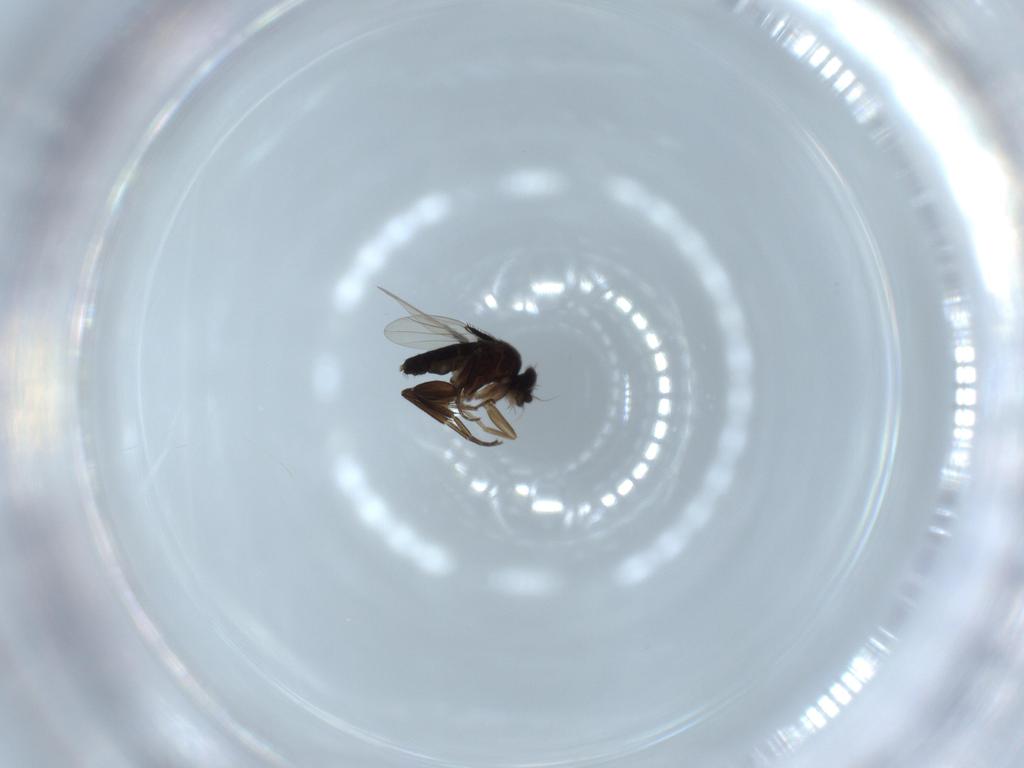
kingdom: Animalia
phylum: Arthropoda
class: Insecta
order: Diptera
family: Phoridae
